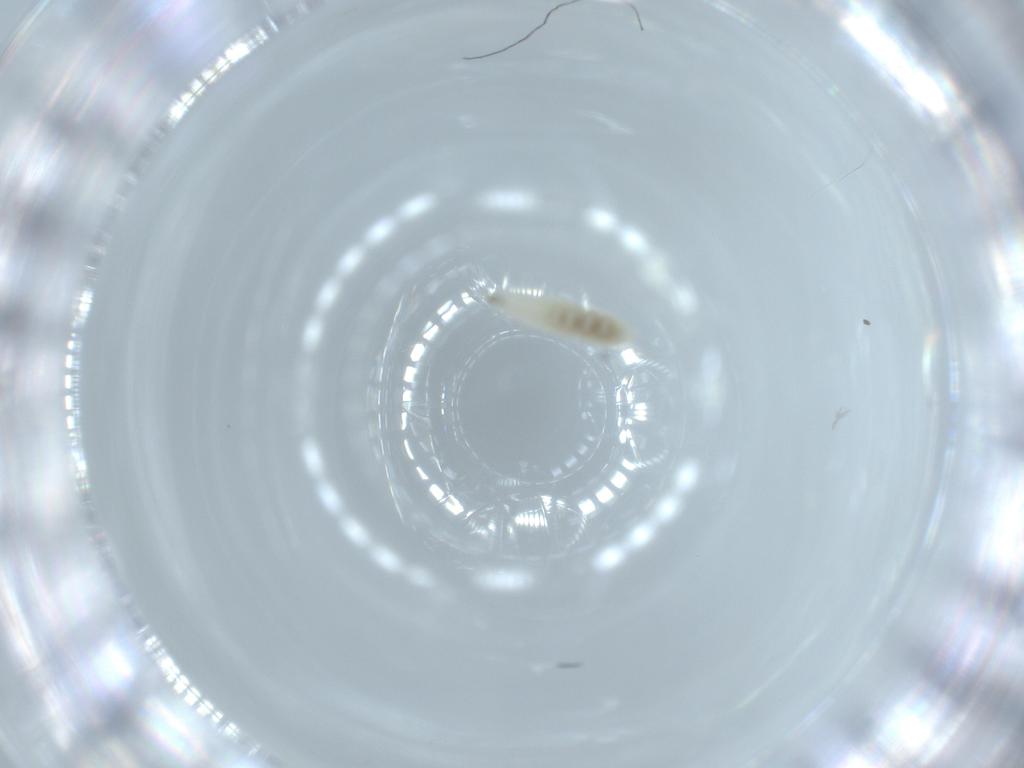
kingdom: Animalia
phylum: Arthropoda
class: Insecta
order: Diptera
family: Cecidomyiidae
